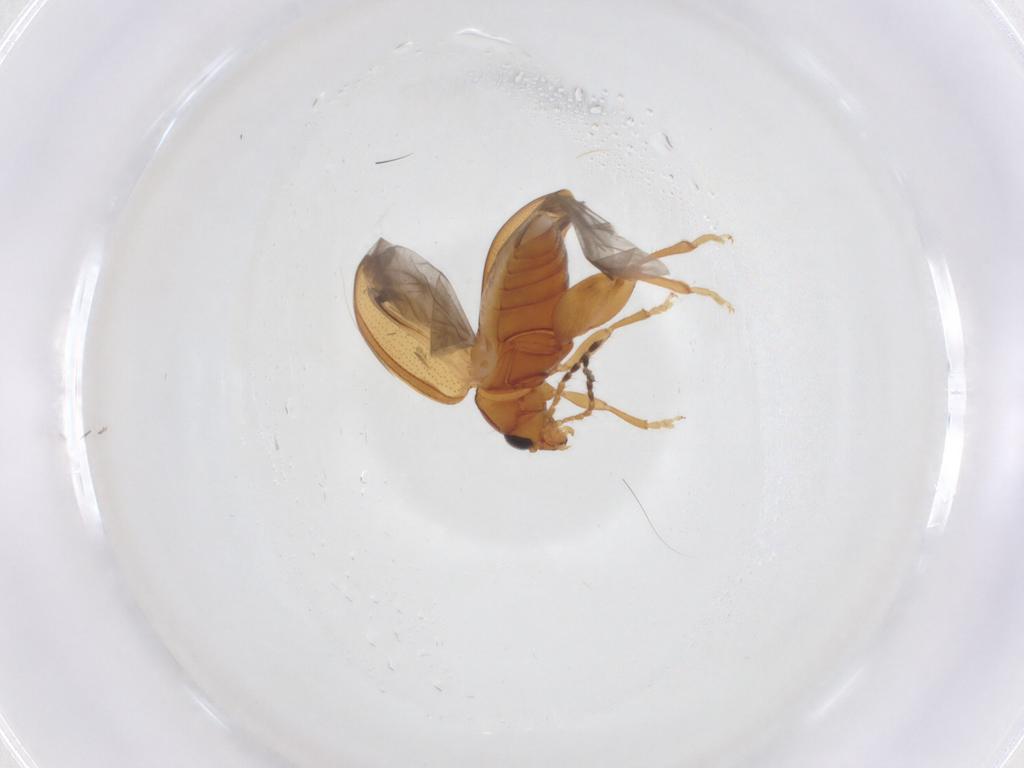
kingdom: Animalia
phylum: Arthropoda
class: Insecta
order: Coleoptera
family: Chrysomelidae
